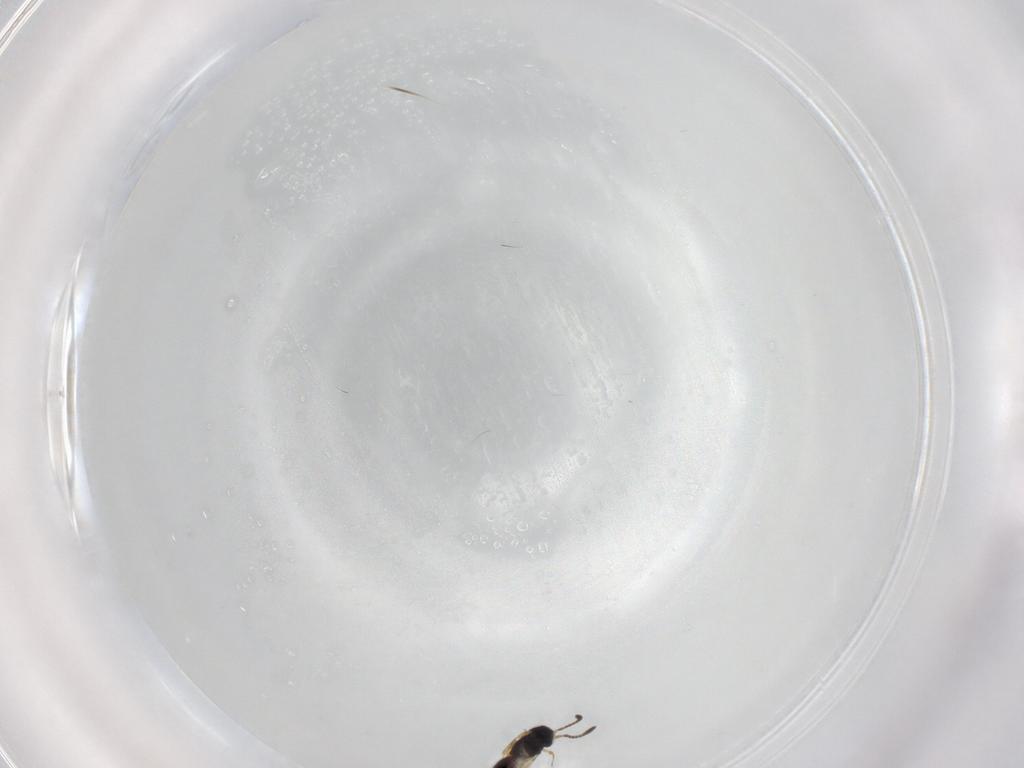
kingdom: Animalia
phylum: Arthropoda
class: Insecta
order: Hymenoptera
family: Scelionidae
